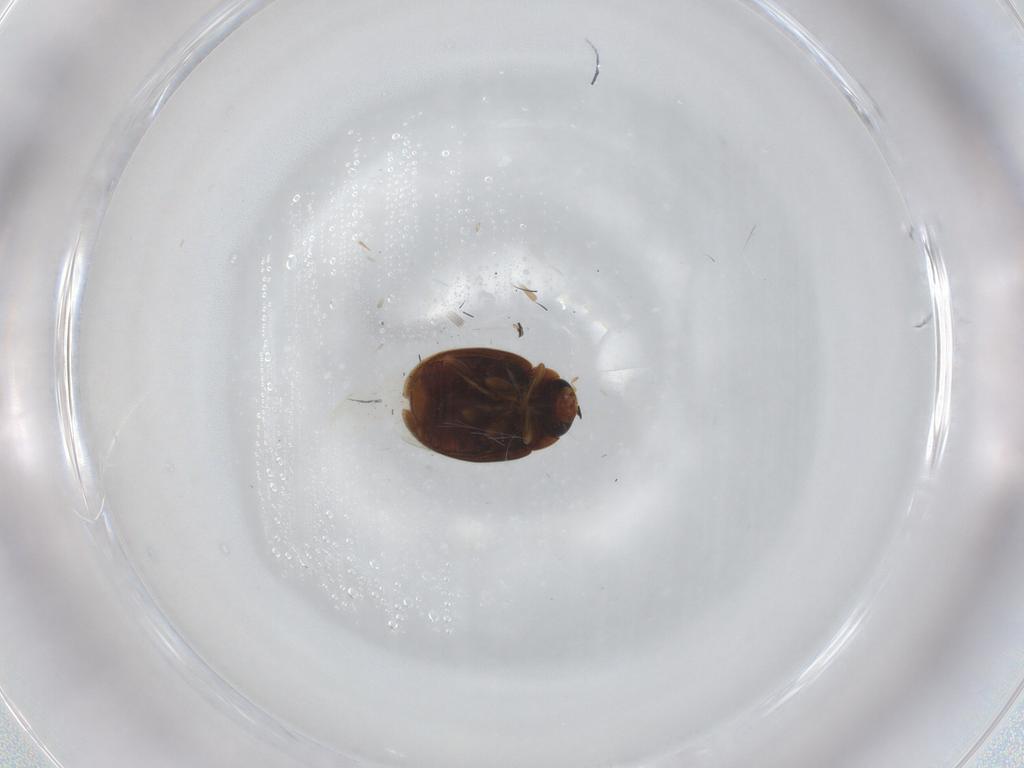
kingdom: Animalia
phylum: Arthropoda
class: Insecta
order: Coleoptera
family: Coccinellidae
